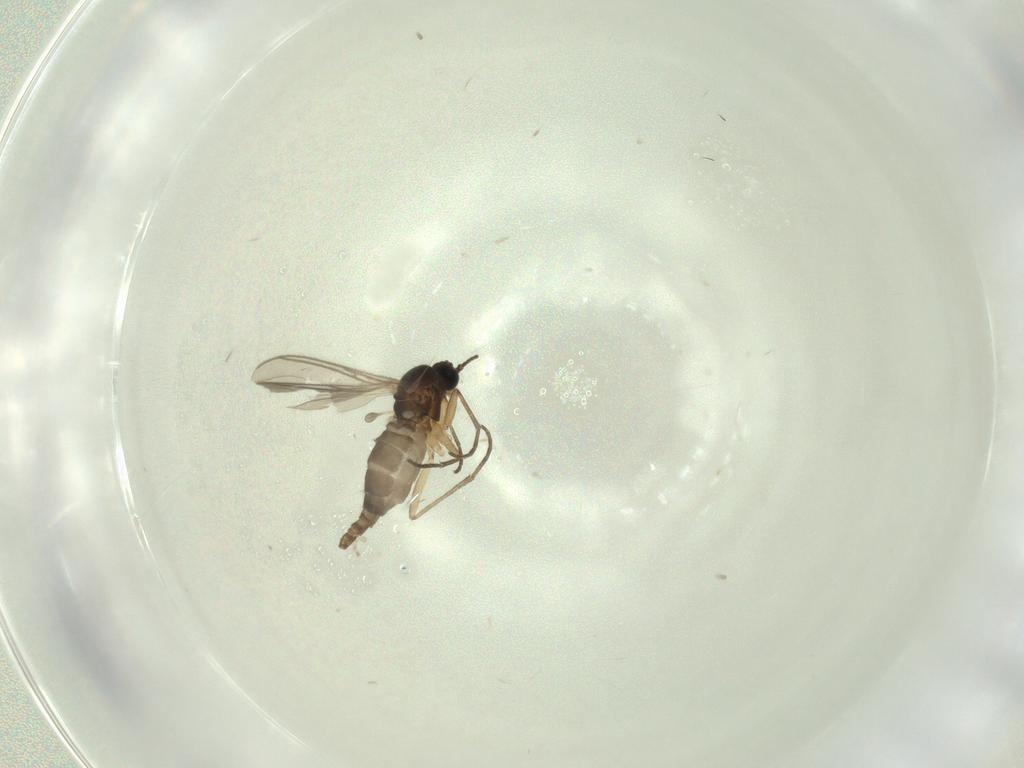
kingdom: Animalia
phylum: Arthropoda
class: Insecta
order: Diptera
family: Sciaridae
